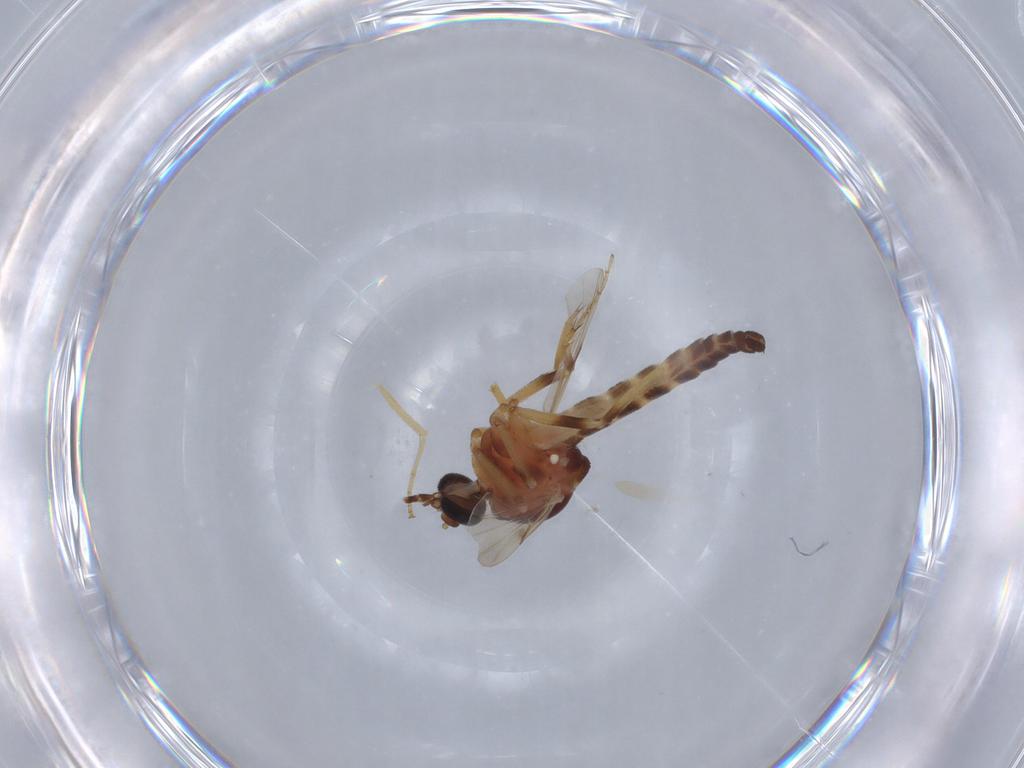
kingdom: Animalia
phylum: Arthropoda
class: Insecta
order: Diptera
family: Ceratopogonidae
